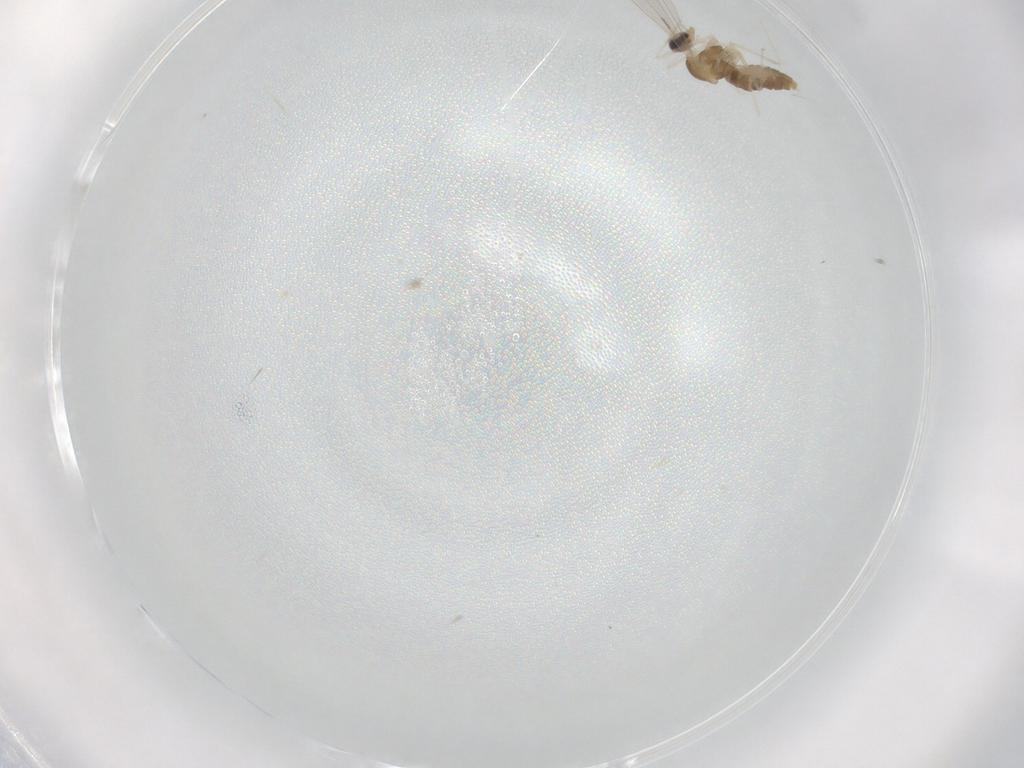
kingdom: Animalia
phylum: Arthropoda
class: Insecta
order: Diptera
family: Cecidomyiidae
